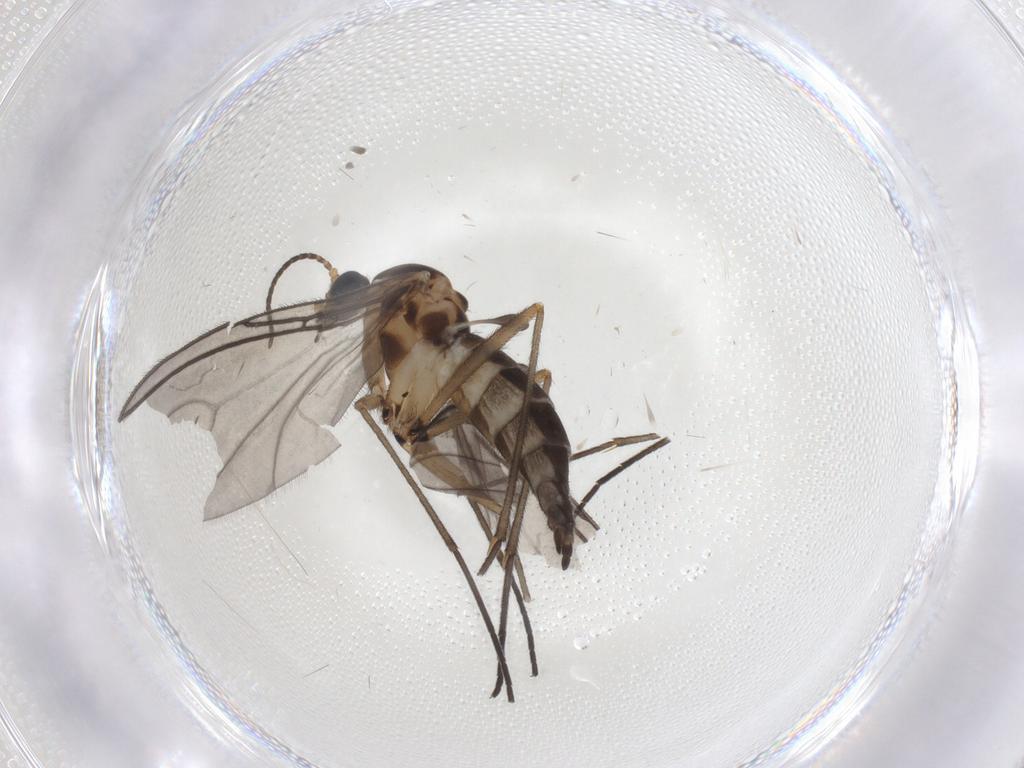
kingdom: Animalia
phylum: Arthropoda
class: Insecta
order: Diptera
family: Sciaridae
